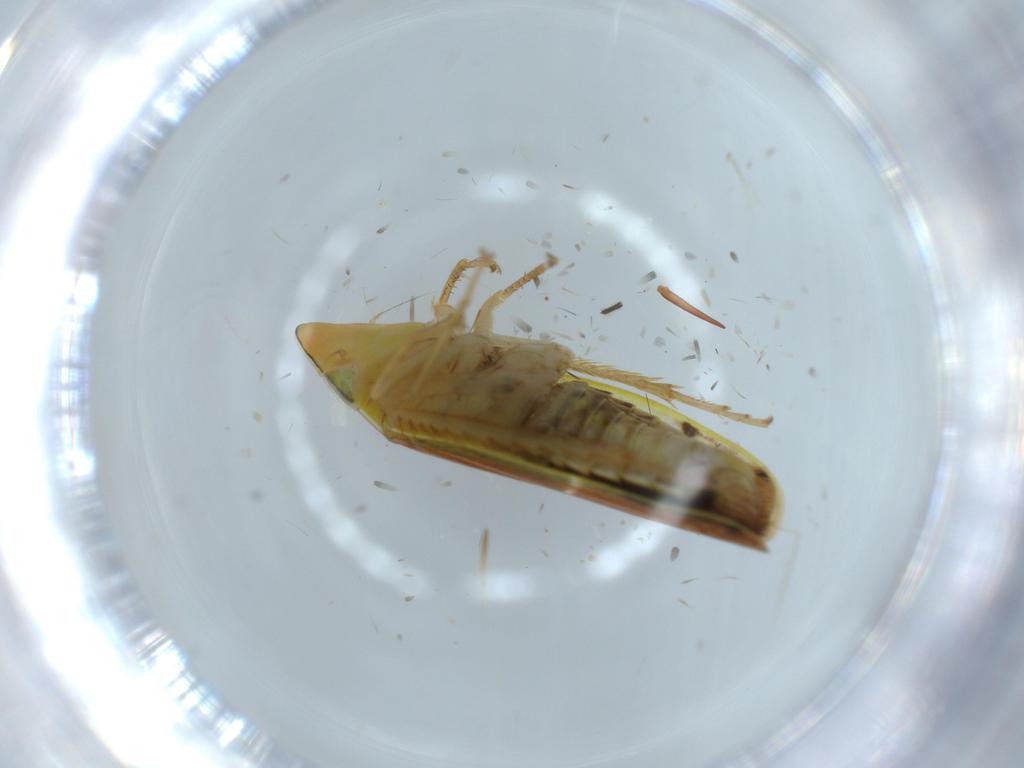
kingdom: Animalia
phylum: Arthropoda
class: Insecta
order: Hemiptera
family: Cicadellidae
